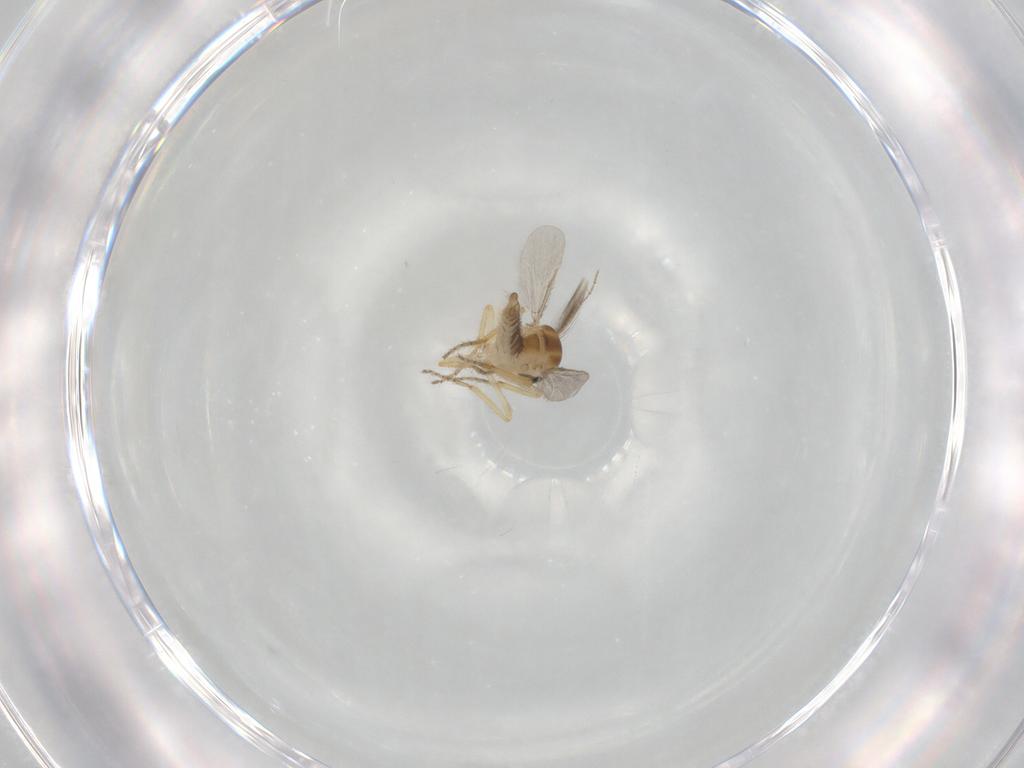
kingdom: Animalia
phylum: Arthropoda
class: Insecta
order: Diptera
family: Ceratopogonidae
